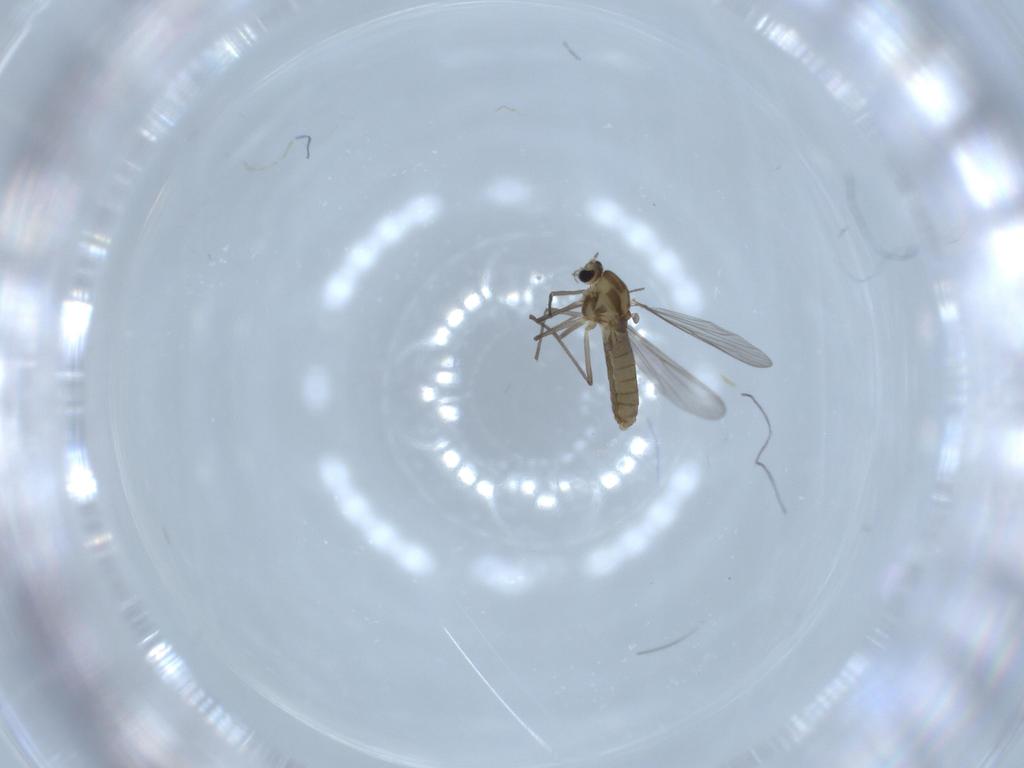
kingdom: Animalia
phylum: Arthropoda
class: Insecta
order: Diptera
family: Chironomidae
